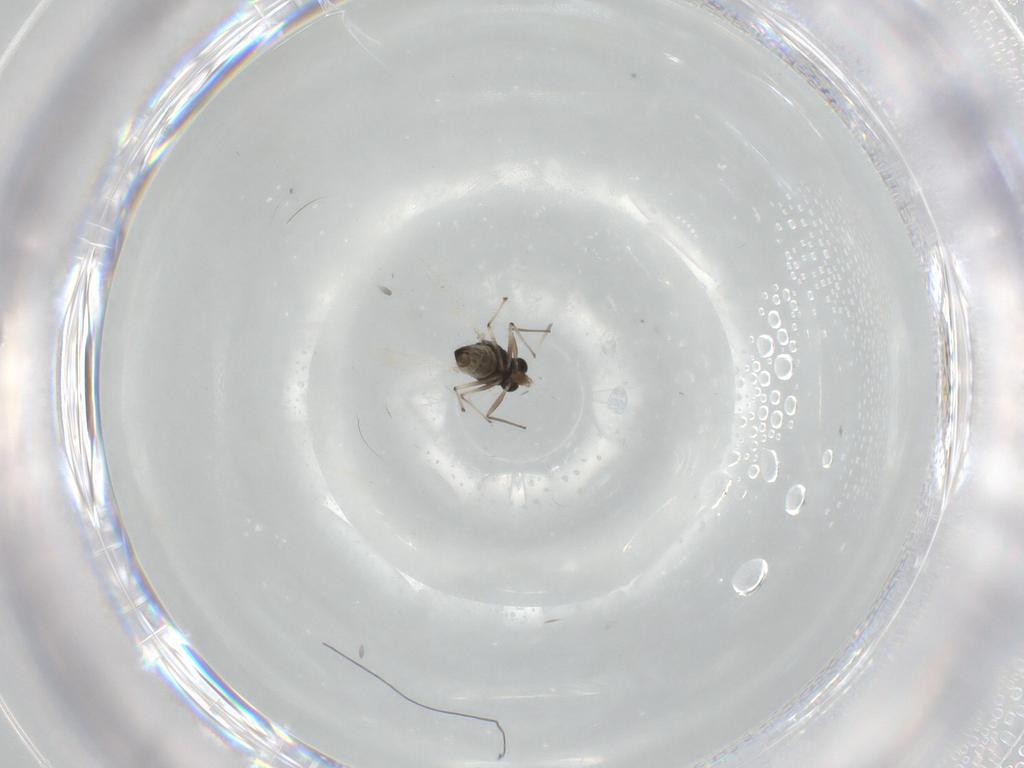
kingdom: Animalia
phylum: Arthropoda
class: Insecta
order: Diptera
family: Chironomidae
